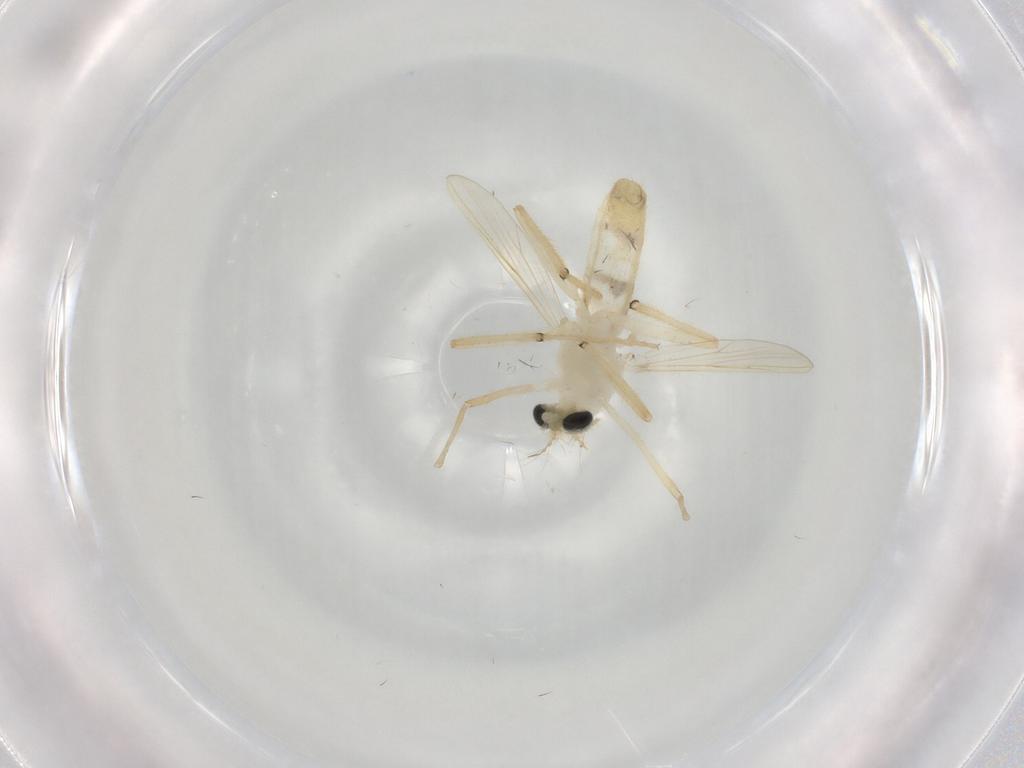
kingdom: Animalia
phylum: Arthropoda
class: Insecta
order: Diptera
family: Chironomidae
